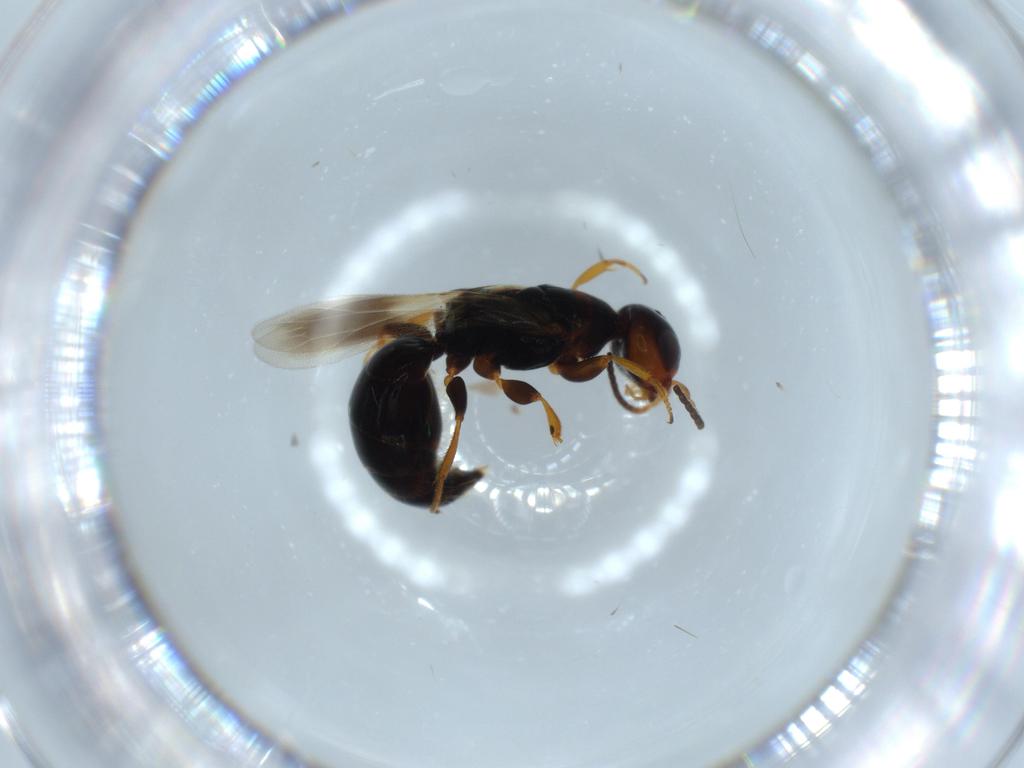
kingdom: Animalia
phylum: Arthropoda
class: Insecta
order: Hymenoptera
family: Bethylidae
